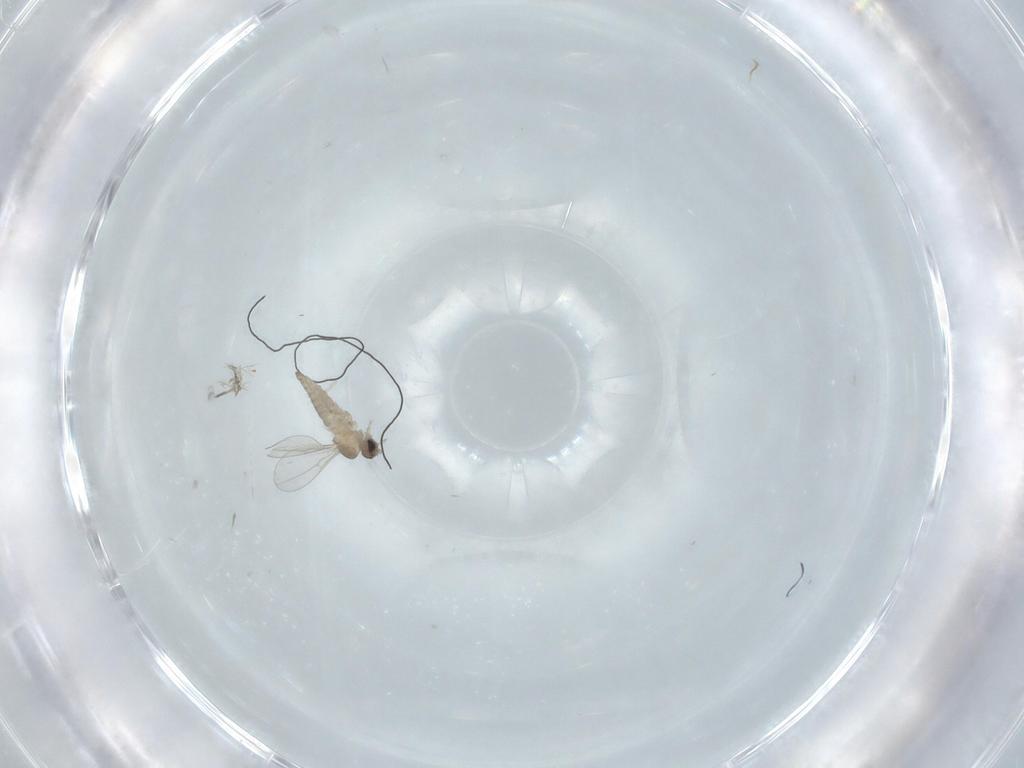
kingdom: Animalia
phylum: Arthropoda
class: Insecta
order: Diptera
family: Cecidomyiidae
